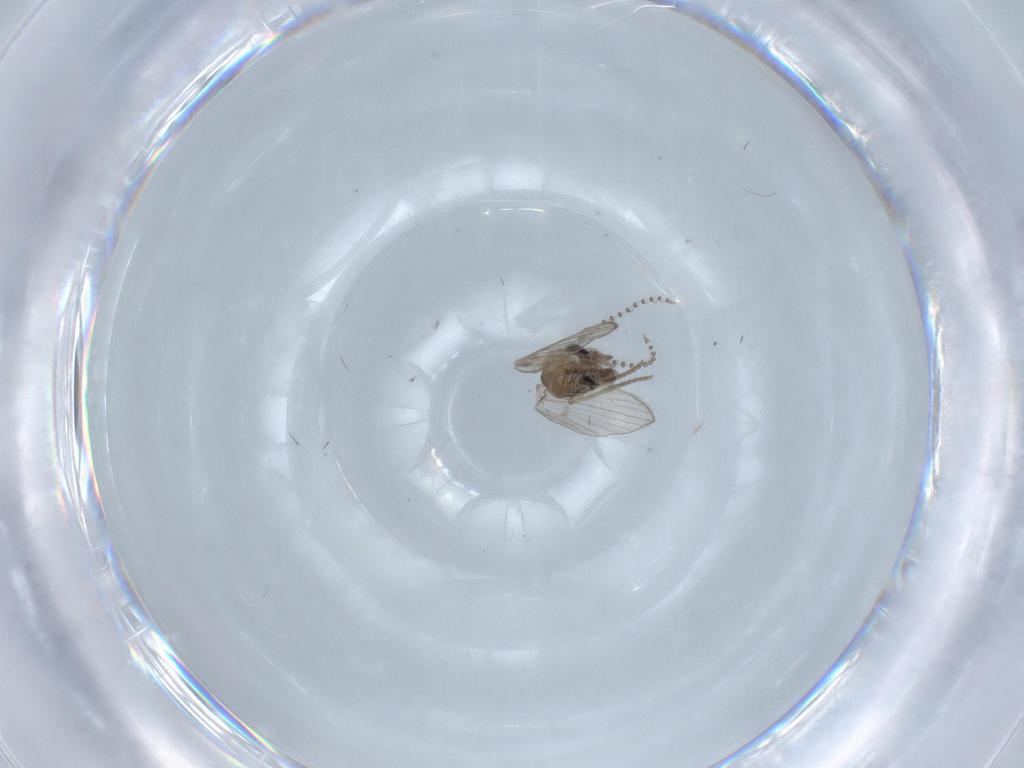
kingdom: Animalia
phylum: Arthropoda
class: Insecta
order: Diptera
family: Psychodidae
